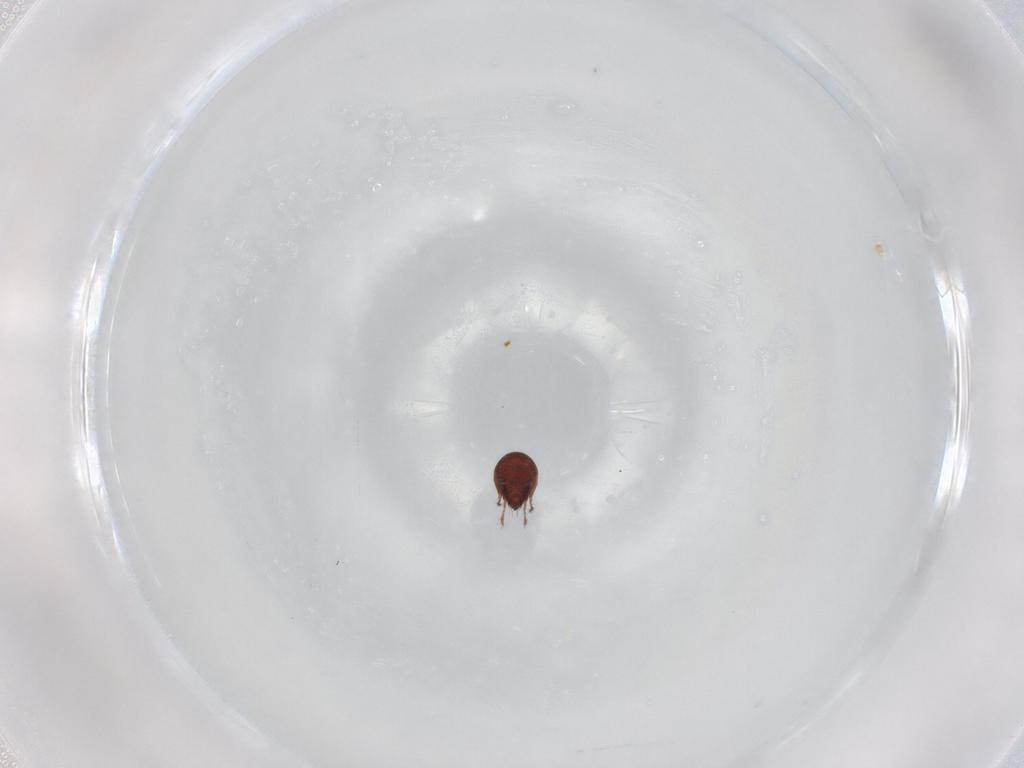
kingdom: Animalia
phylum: Arthropoda
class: Arachnida
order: Sarcoptiformes
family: Ceratozetidae
